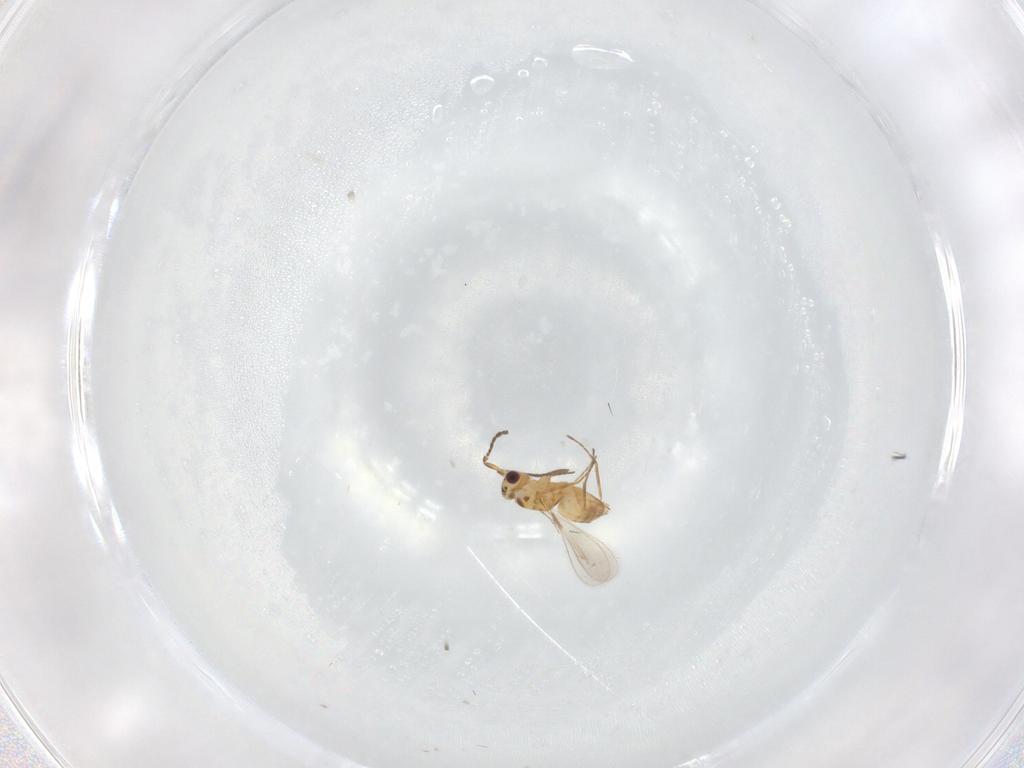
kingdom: Animalia
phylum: Arthropoda
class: Insecta
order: Hymenoptera
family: Mymaridae
